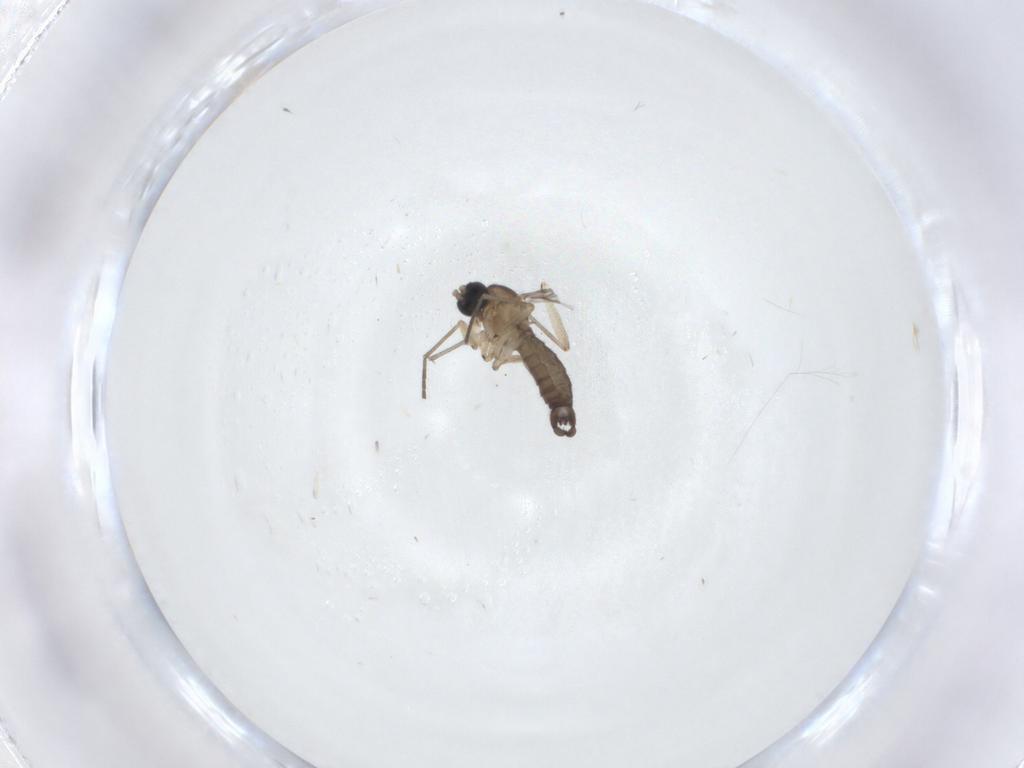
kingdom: Animalia
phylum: Arthropoda
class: Insecta
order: Diptera
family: Sciaridae
